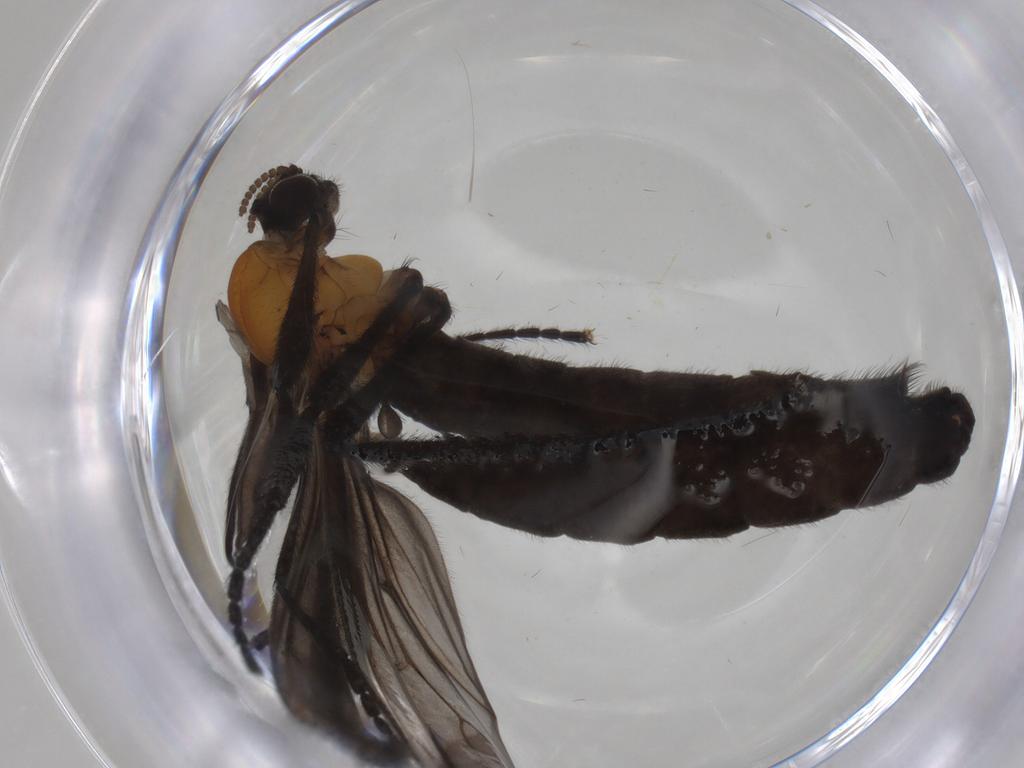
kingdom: Animalia
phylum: Arthropoda
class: Insecta
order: Diptera
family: Bibionidae
